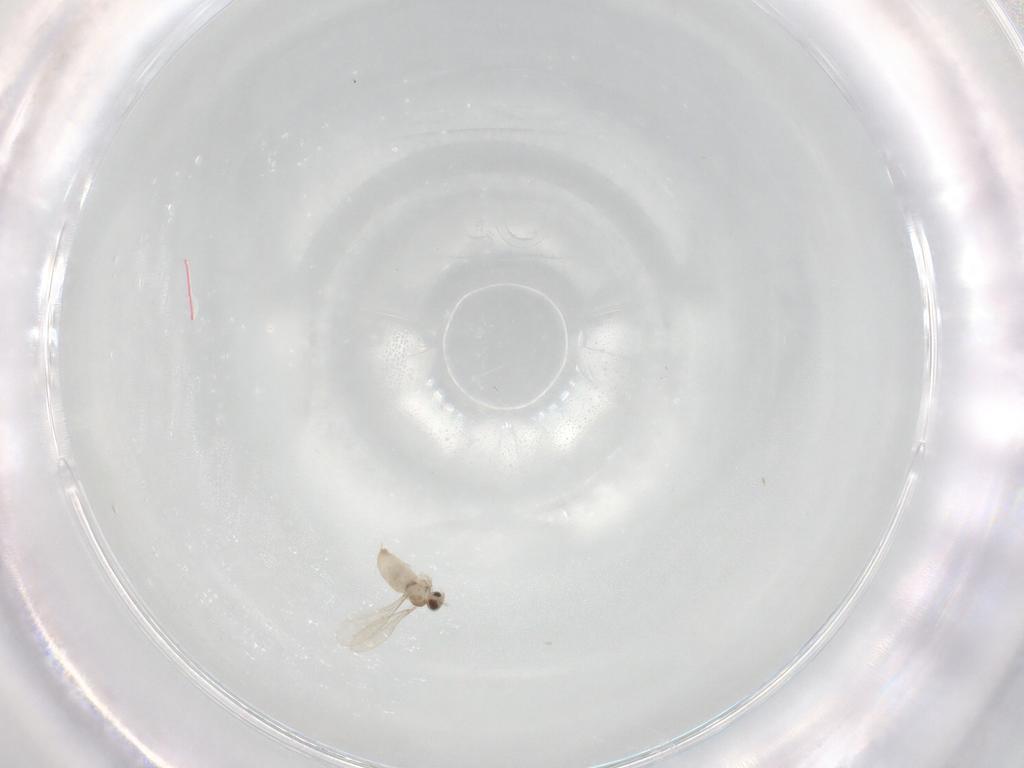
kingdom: Animalia
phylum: Arthropoda
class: Insecta
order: Diptera
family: Cecidomyiidae
